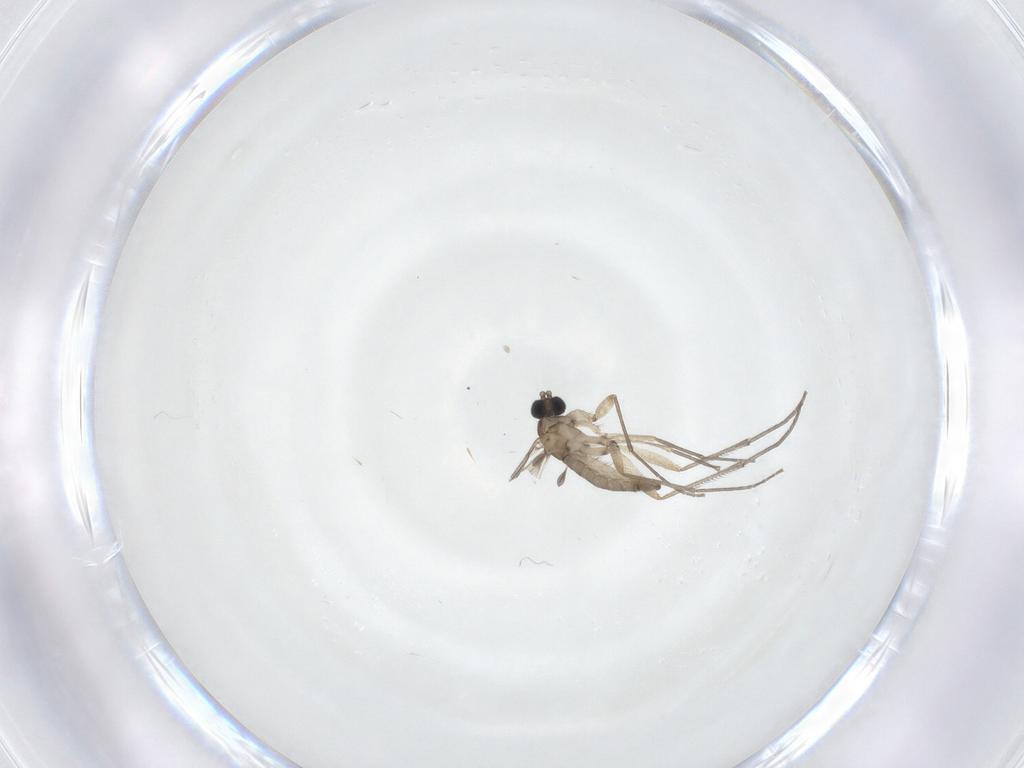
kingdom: Animalia
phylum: Arthropoda
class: Insecta
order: Diptera
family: Sciaridae
